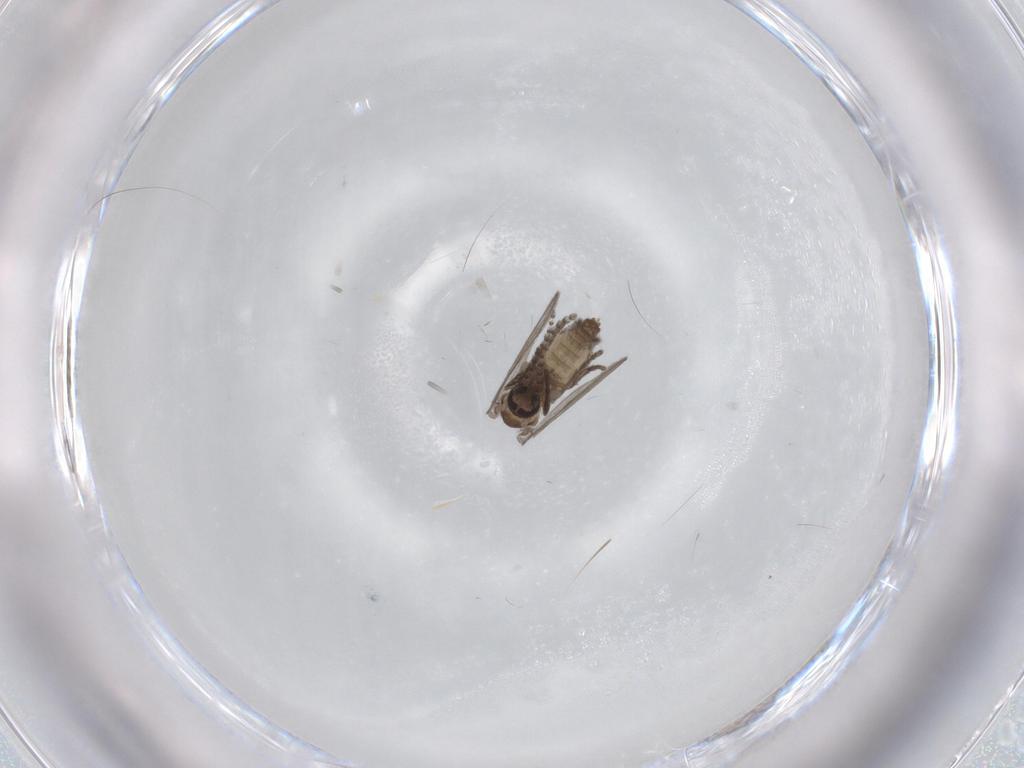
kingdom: Animalia
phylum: Arthropoda
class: Insecta
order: Diptera
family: Psychodidae
